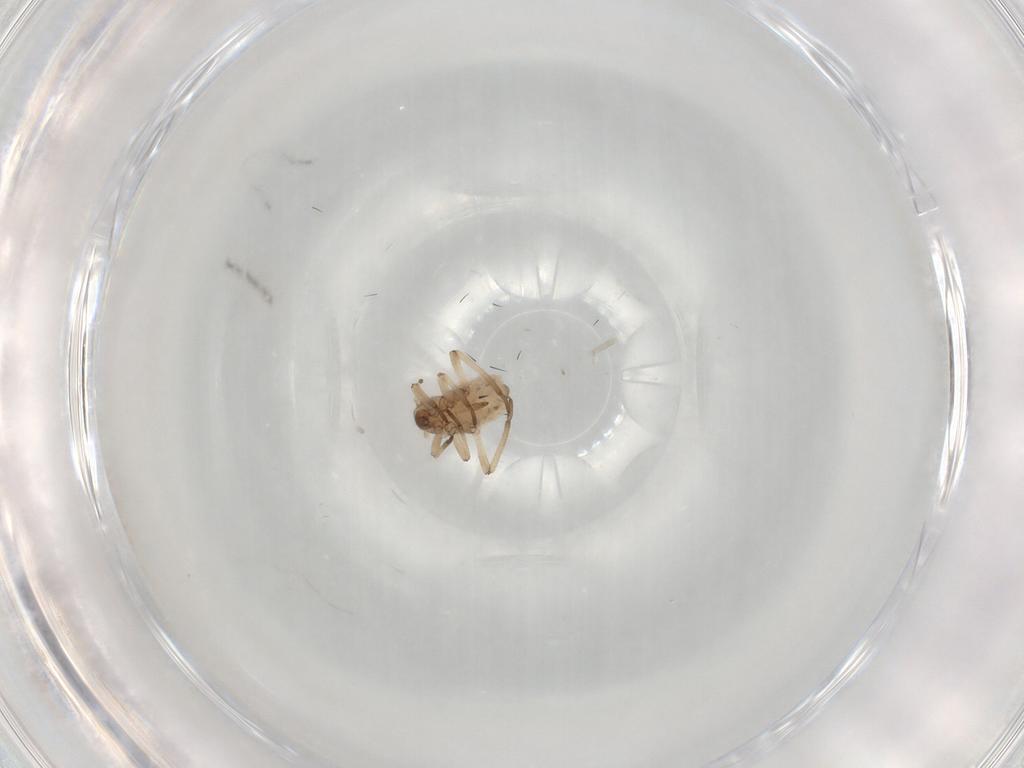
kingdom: Animalia
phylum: Arthropoda
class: Insecta
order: Hemiptera
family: Aphididae
